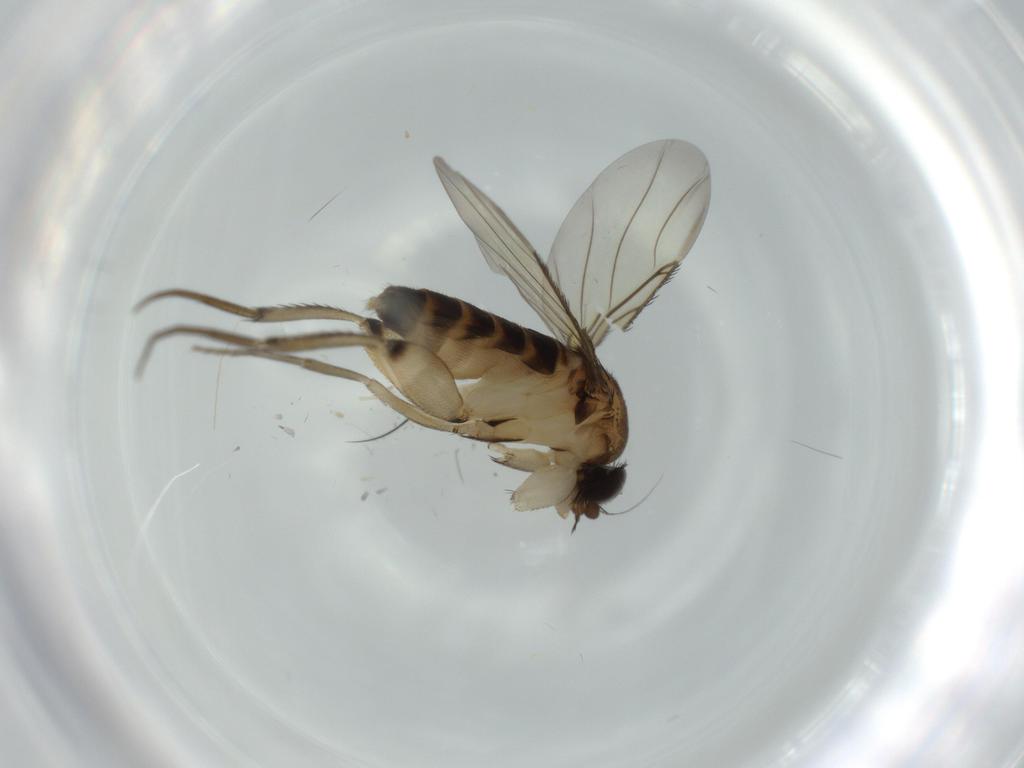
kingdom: Animalia
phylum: Arthropoda
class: Insecta
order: Diptera
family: Phoridae
